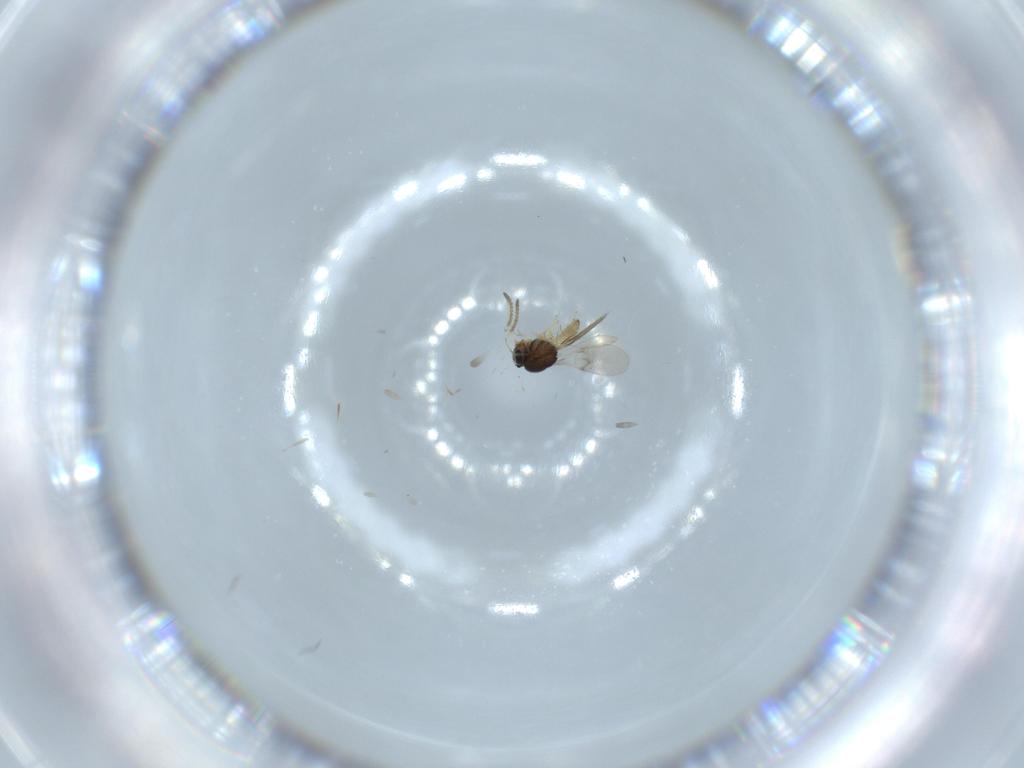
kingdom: Animalia
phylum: Arthropoda
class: Insecta
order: Hymenoptera
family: Platygastridae
